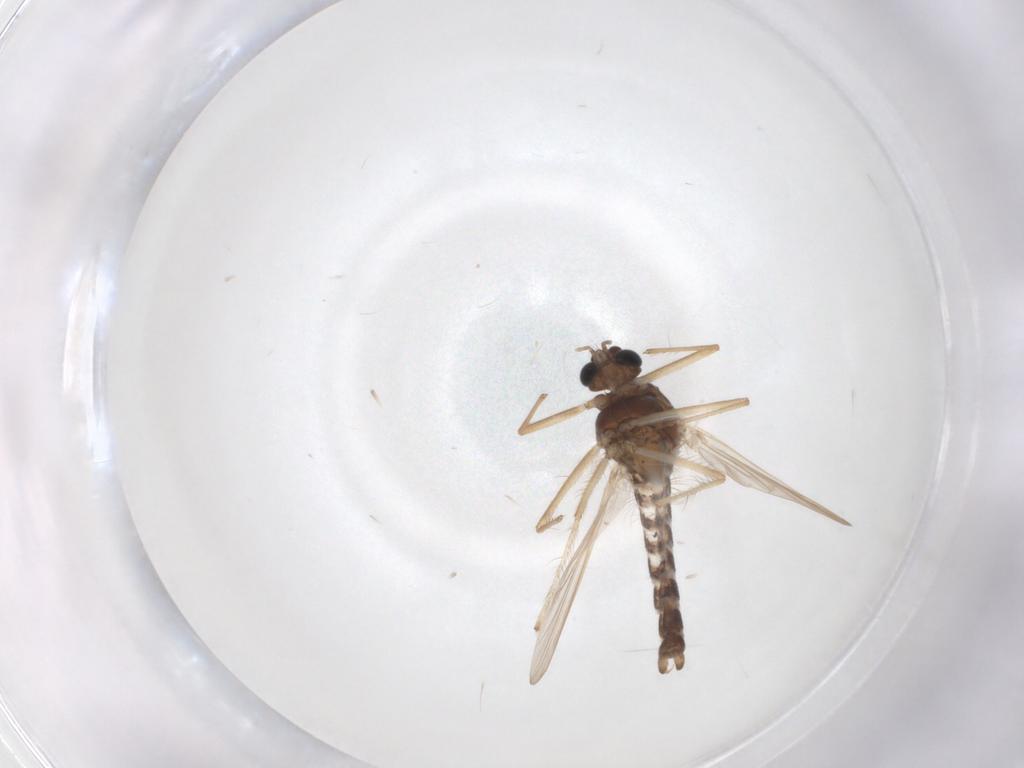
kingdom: Animalia
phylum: Arthropoda
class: Insecta
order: Diptera
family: Chironomidae
